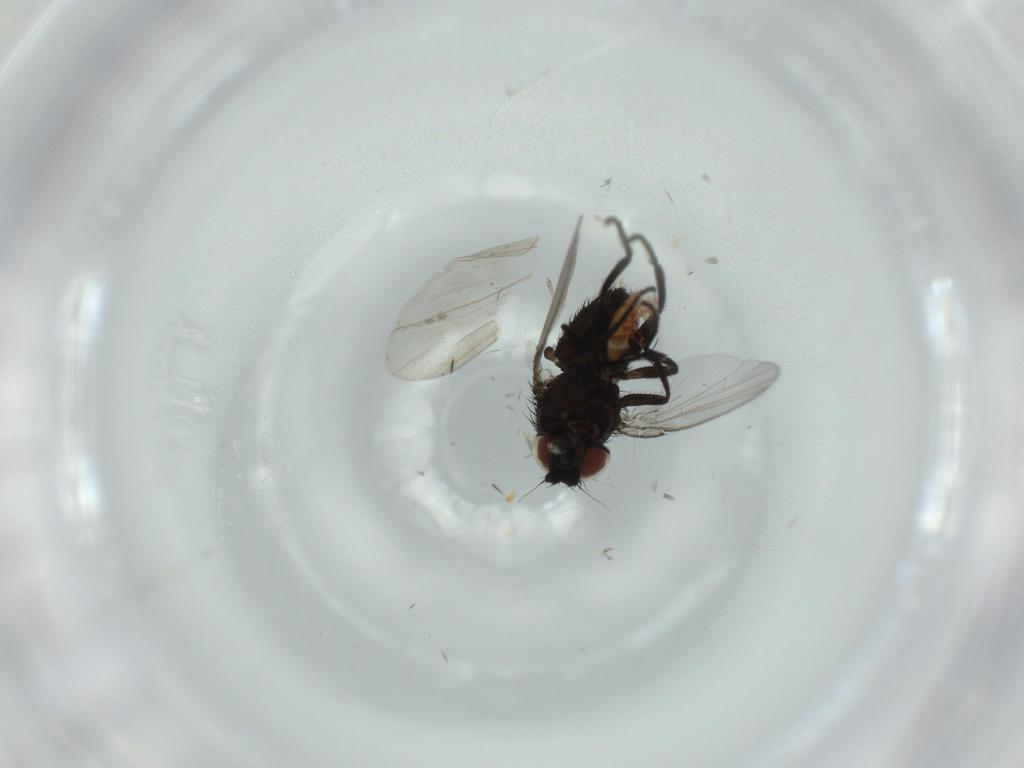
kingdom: Animalia
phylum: Arthropoda
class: Insecta
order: Diptera
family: Milichiidae
